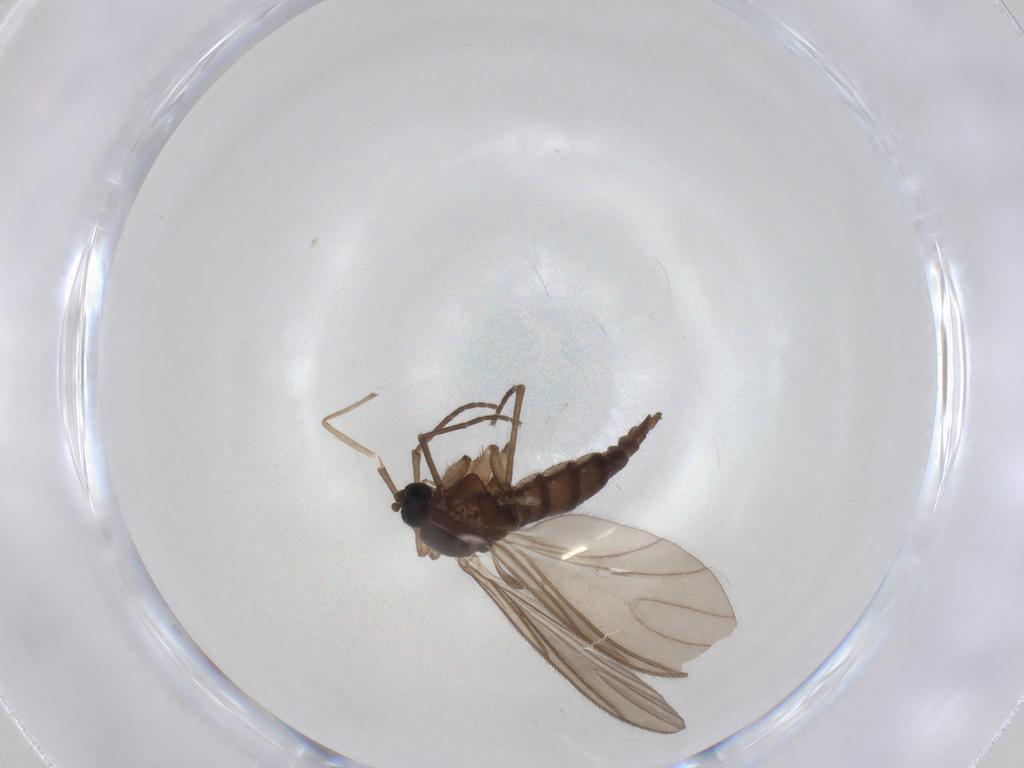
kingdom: Animalia
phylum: Arthropoda
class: Insecta
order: Diptera
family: Sciaridae
